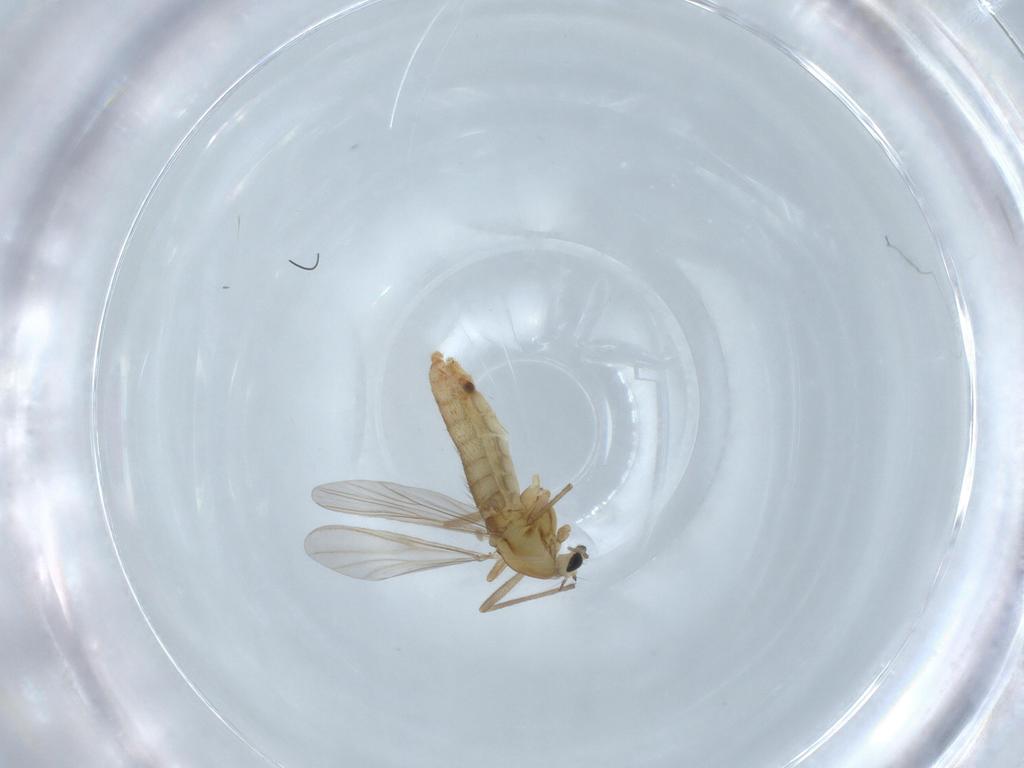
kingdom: Animalia
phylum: Arthropoda
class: Insecta
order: Diptera
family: Chironomidae
